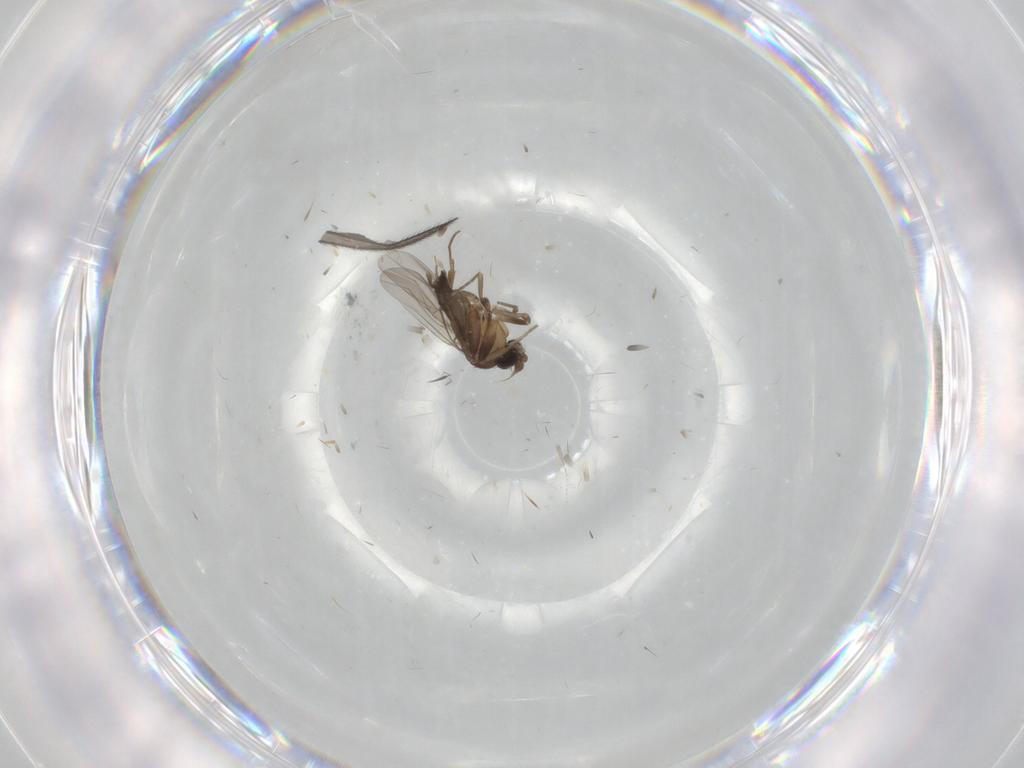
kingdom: Animalia
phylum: Arthropoda
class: Insecta
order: Diptera
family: Phoridae
